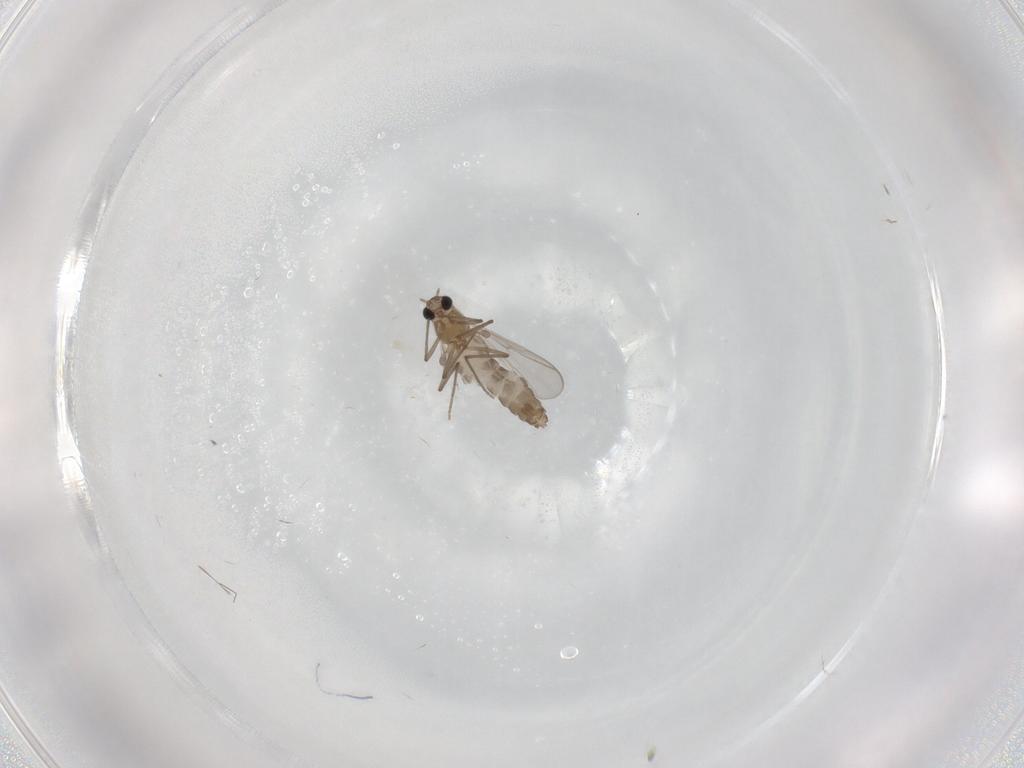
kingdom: Animalia
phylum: Arthropoda
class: Insecta
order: Diptera
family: Chironomidae
